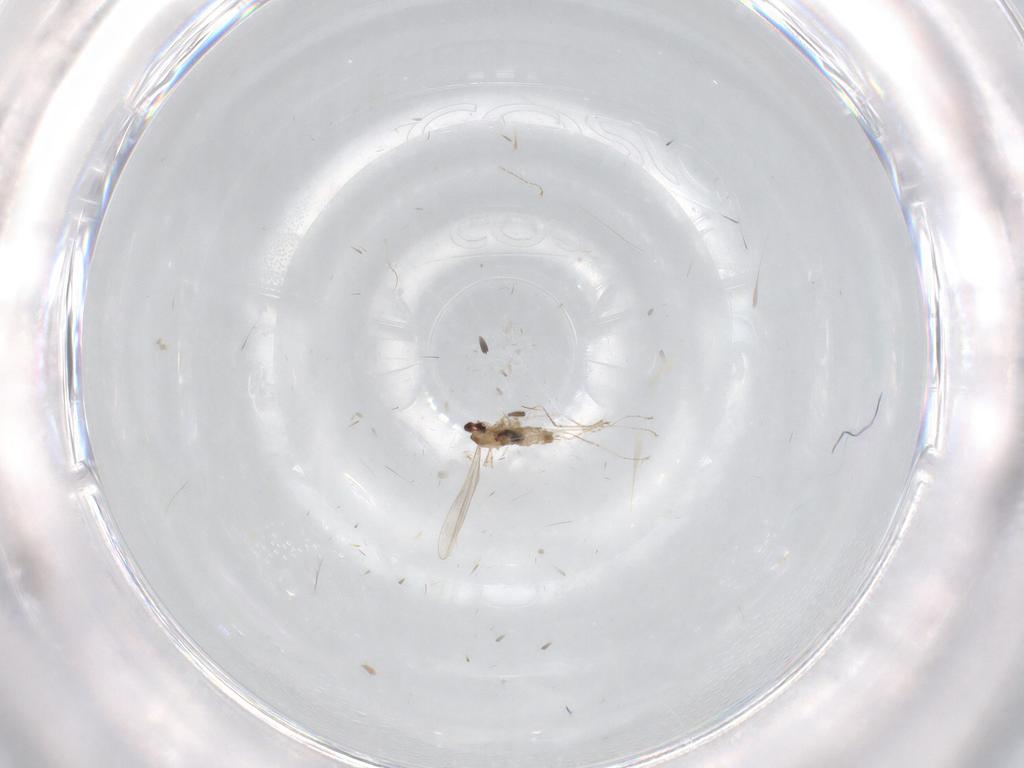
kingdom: Animalia
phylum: Arthropoda
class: Insecta
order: Diptera
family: Cecidomyiidae
